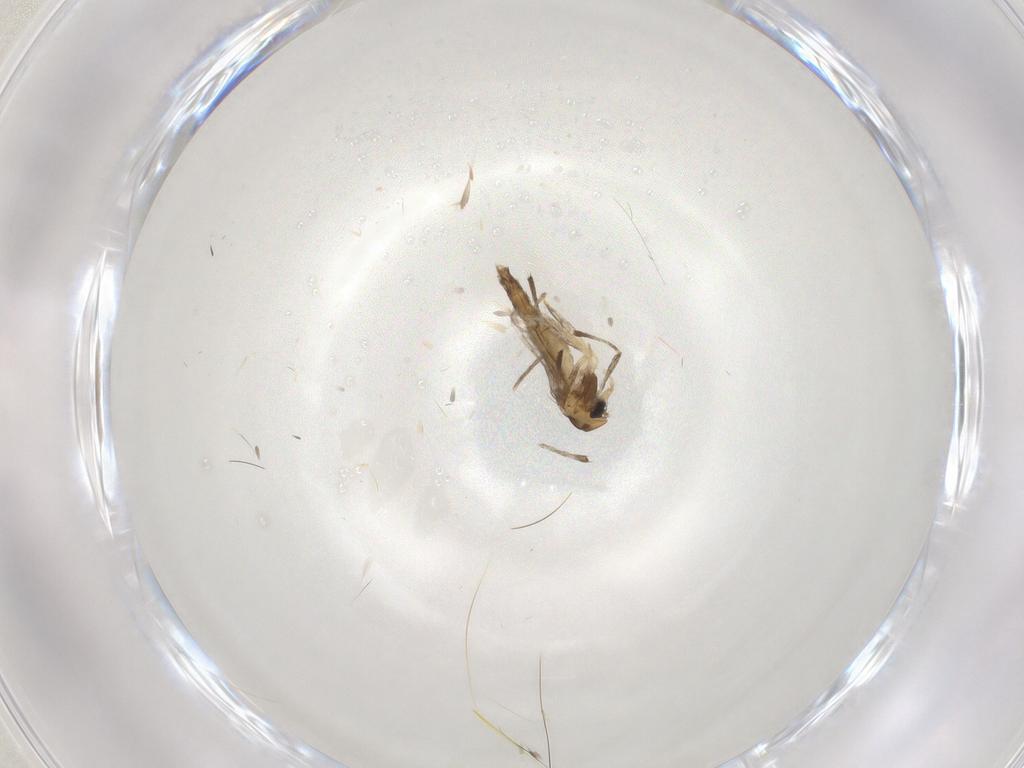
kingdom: Animalia
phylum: Arthropoda
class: Insecta
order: Diptera
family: Chironomidae
